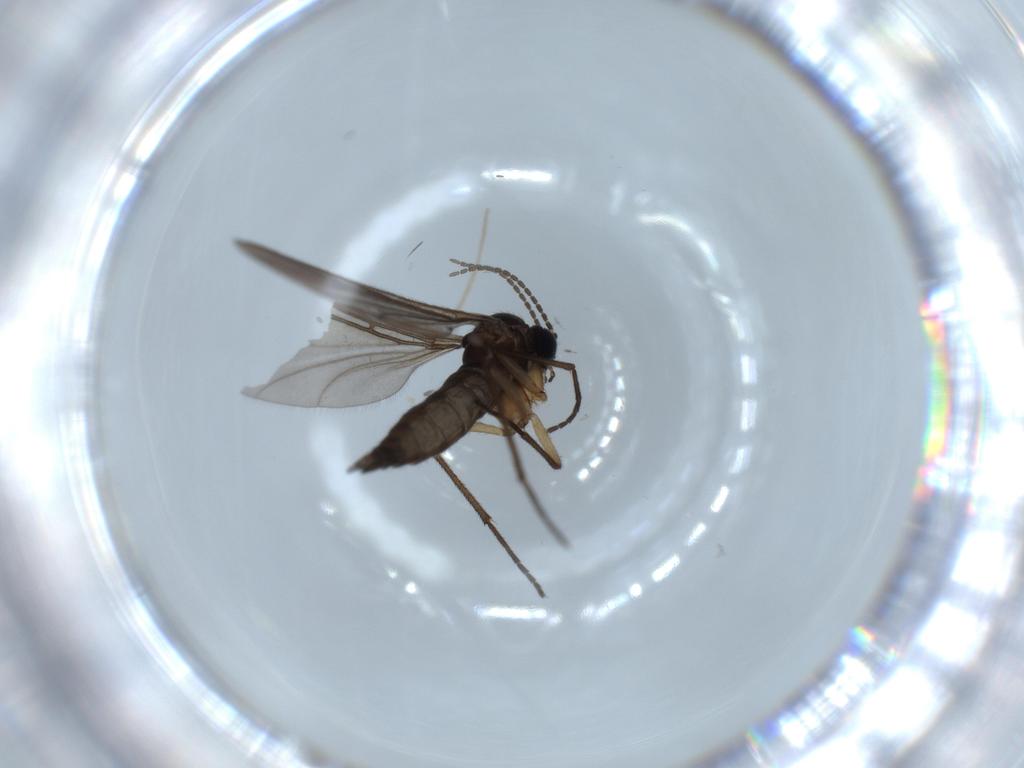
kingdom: Animalia
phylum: Arthropoda
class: Insecta
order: Diptera
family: Sciaridae
